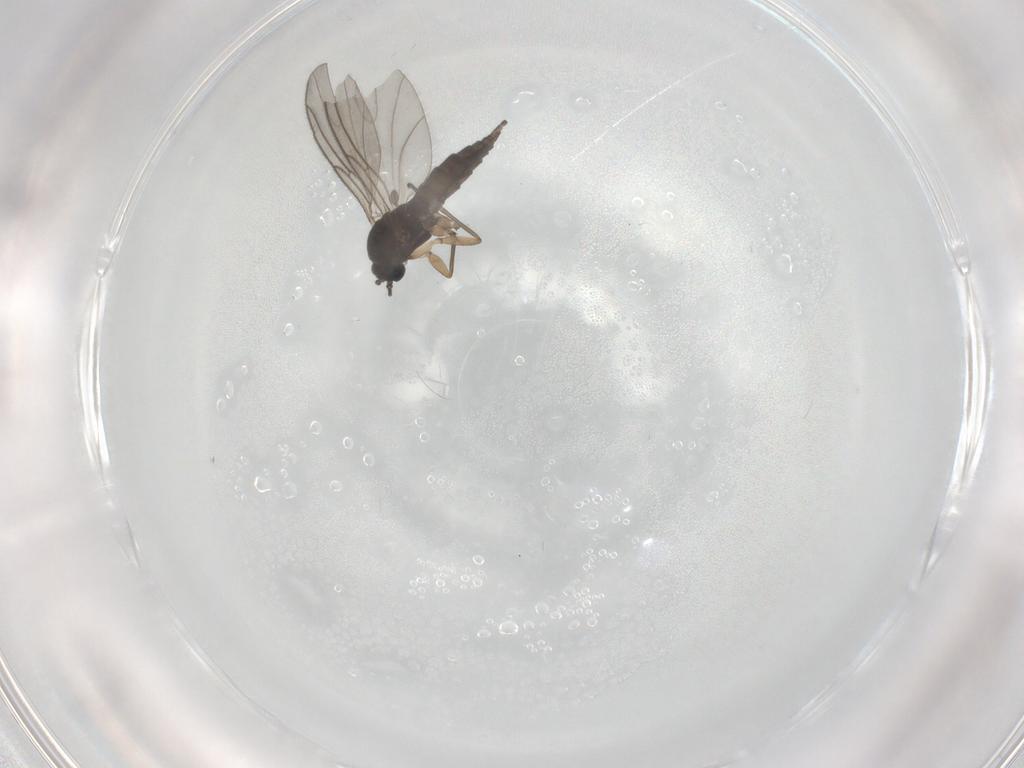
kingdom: Animalia
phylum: Arthropoda
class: Insecta
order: Diptera
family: Sciaridae
